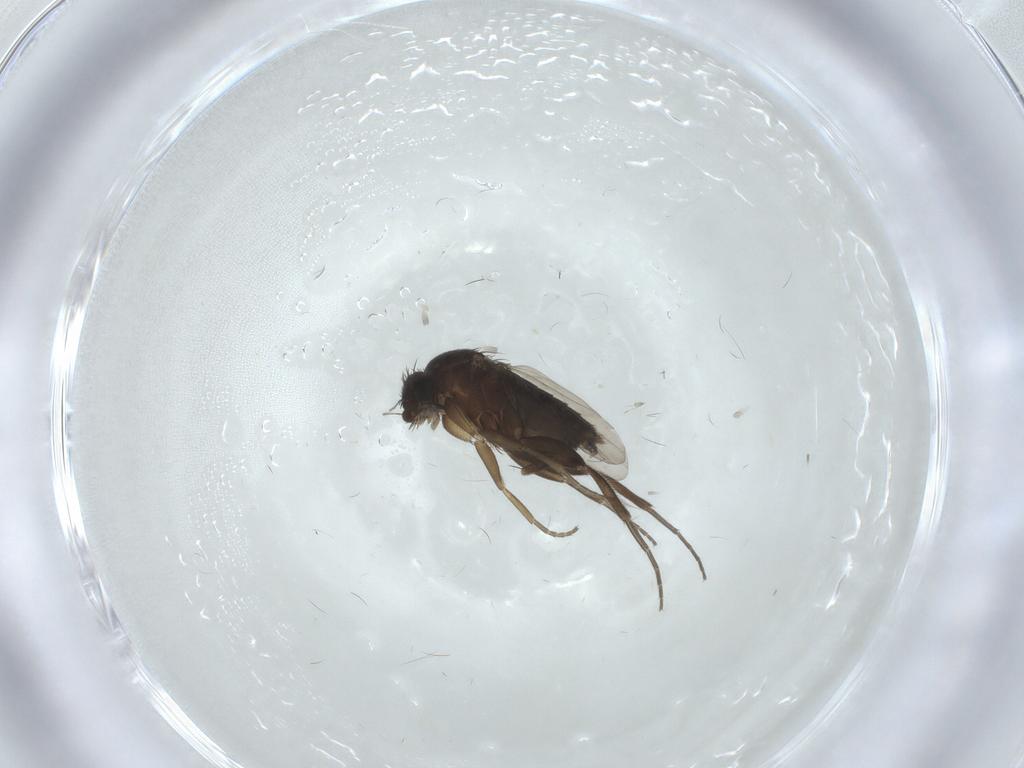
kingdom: Animalia
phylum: Arthropoda
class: Insecta
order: Diptera
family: Phoridae
